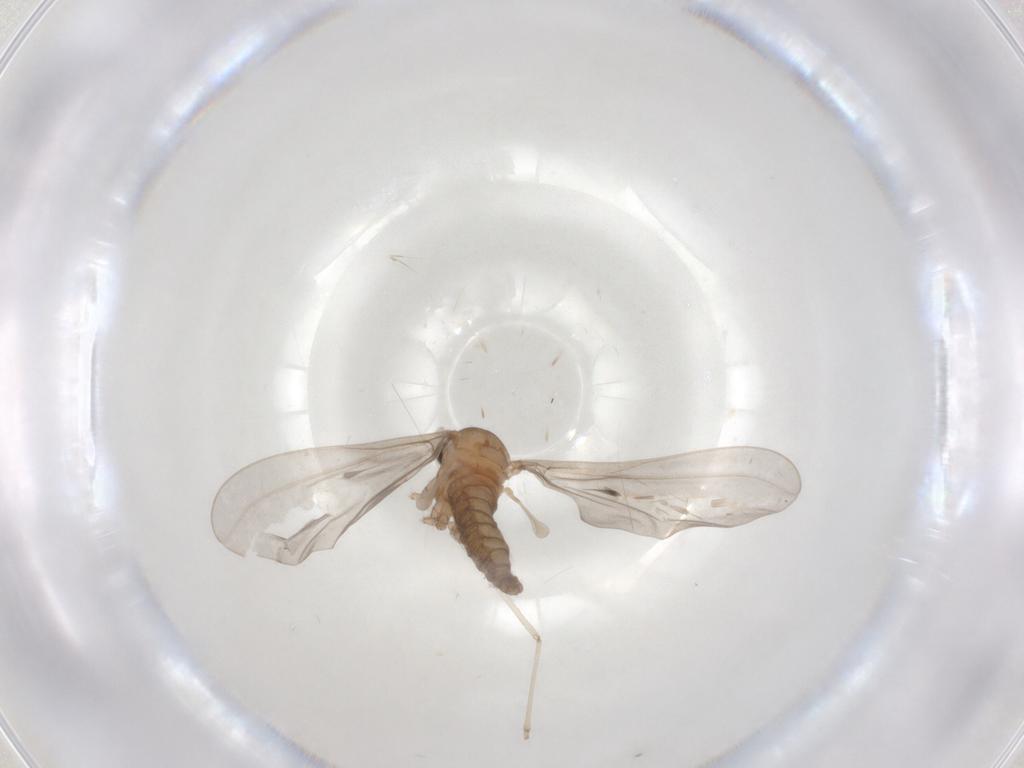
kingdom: Animalia
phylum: Arthropoda
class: Insecta
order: Diptera
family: Cecidomyiidae
